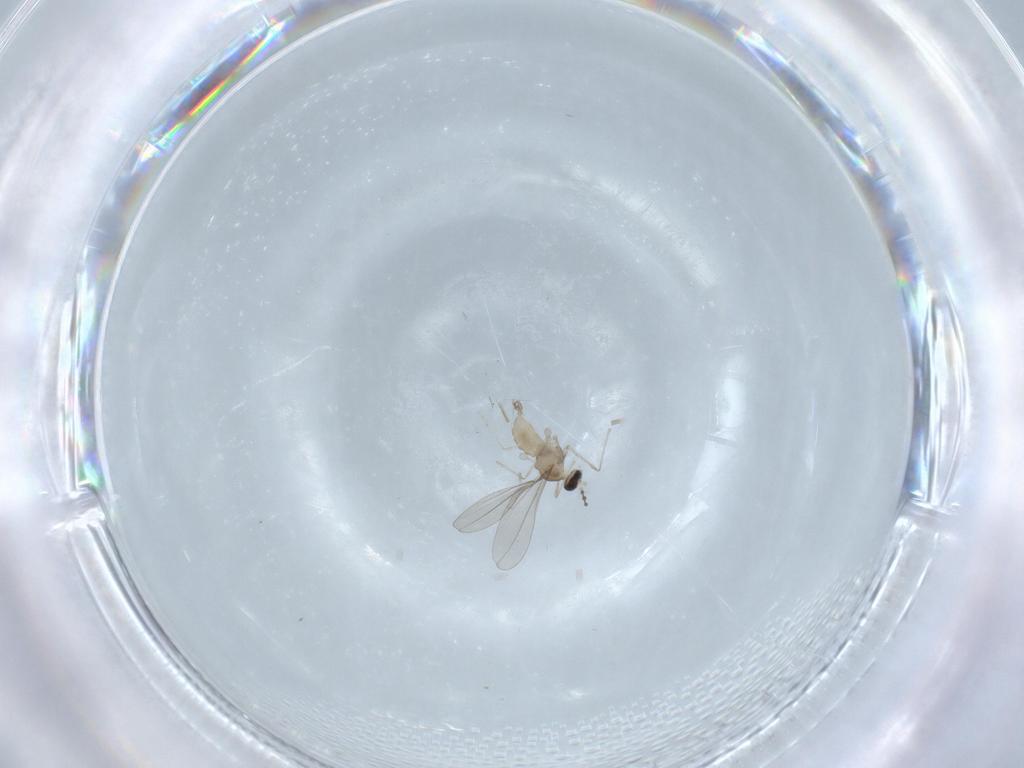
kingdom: Animalia
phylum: Arthropoda
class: Insecta
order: Diptera
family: Cecidomyiidae
